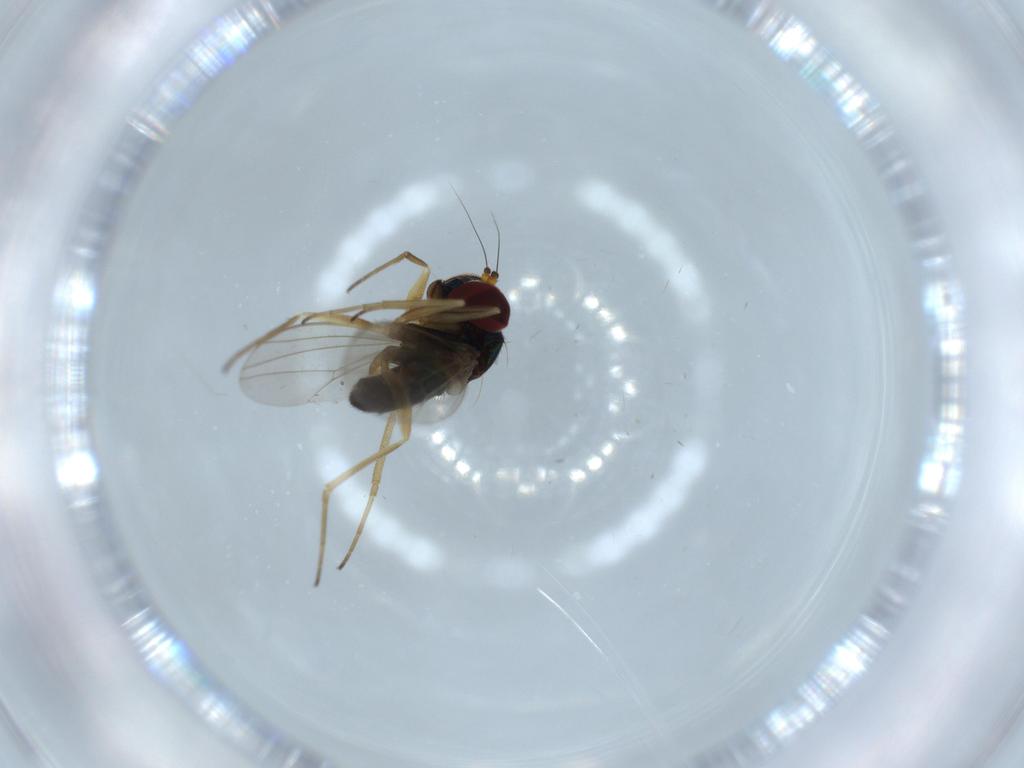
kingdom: Animalia
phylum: Arthropoda
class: Insecta
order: Diptera
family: Dolichopodidae
